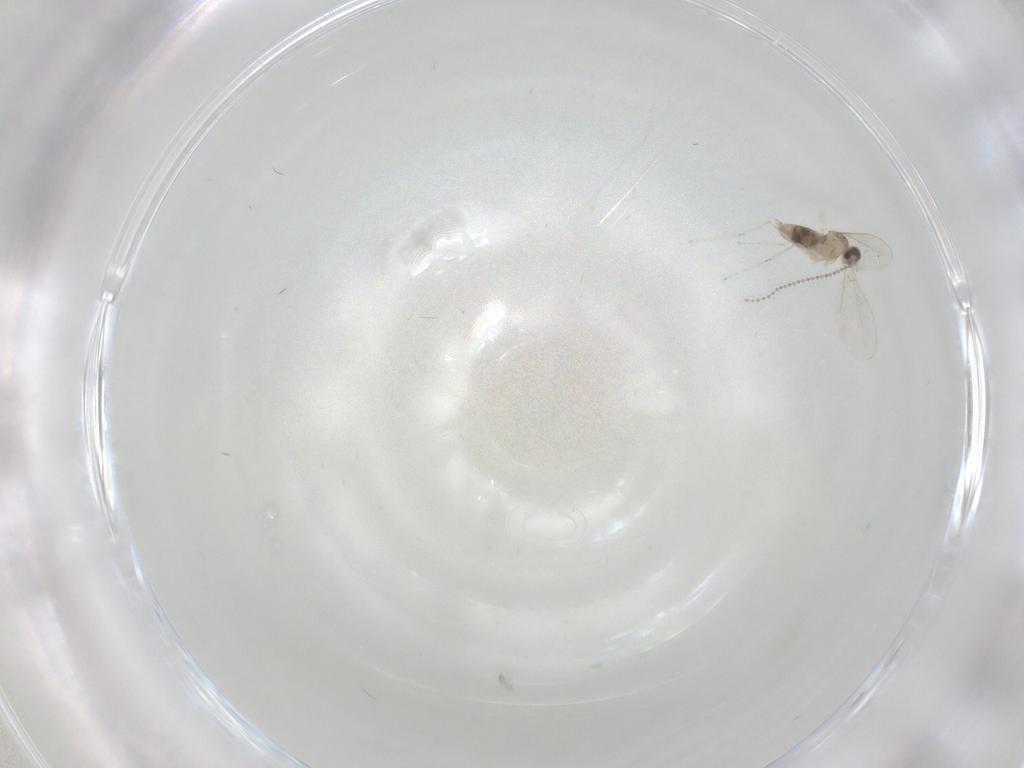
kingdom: Animalia
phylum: Arthropoda
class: Insecta
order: Diptera
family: Cecidomyiidae
